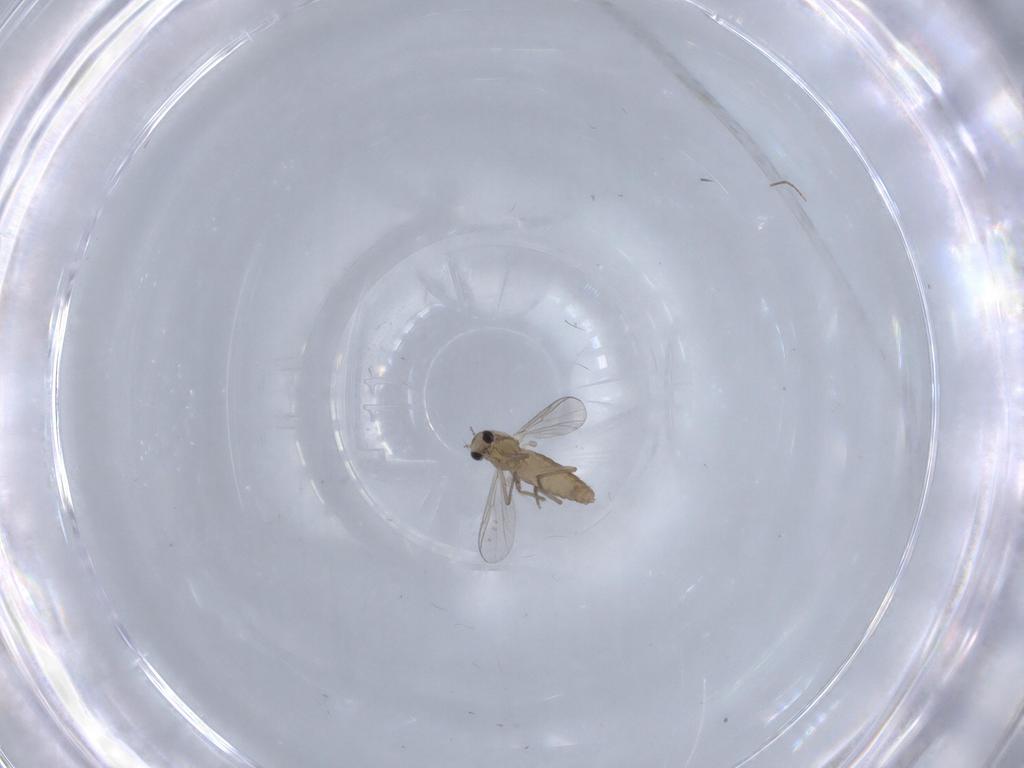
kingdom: Animalia
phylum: Arthropoda
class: Insecta
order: Diptera
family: Chironomidae
